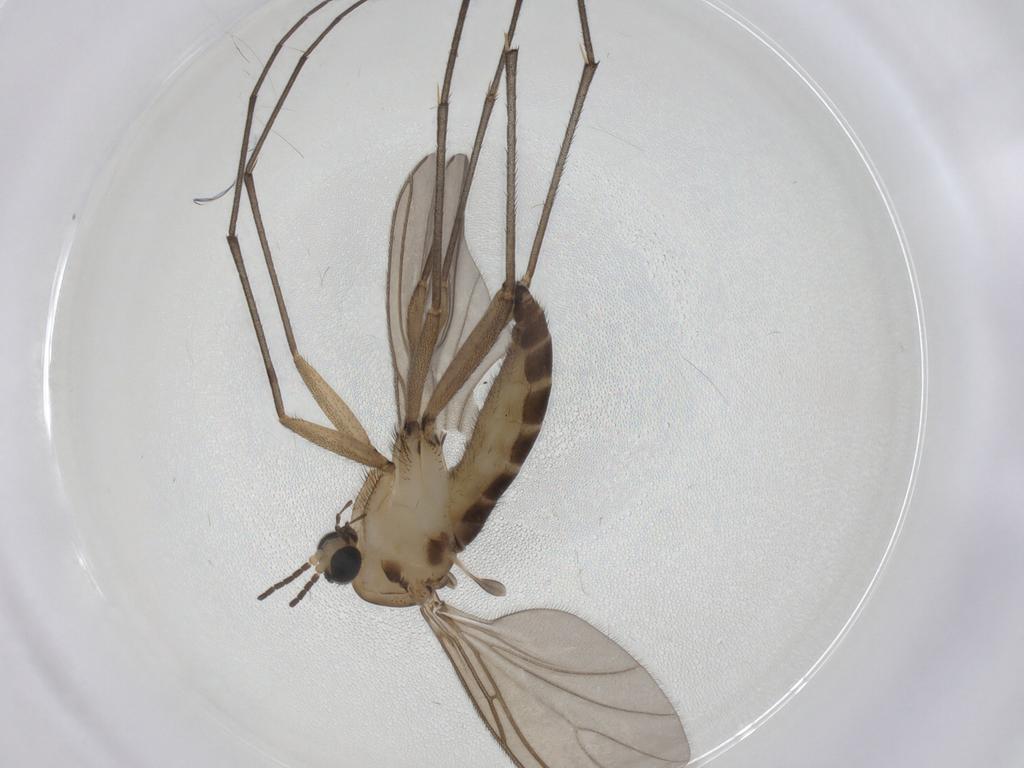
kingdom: Animalia
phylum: Arthropoda
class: Insecta
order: Diptera
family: Sciaridae
